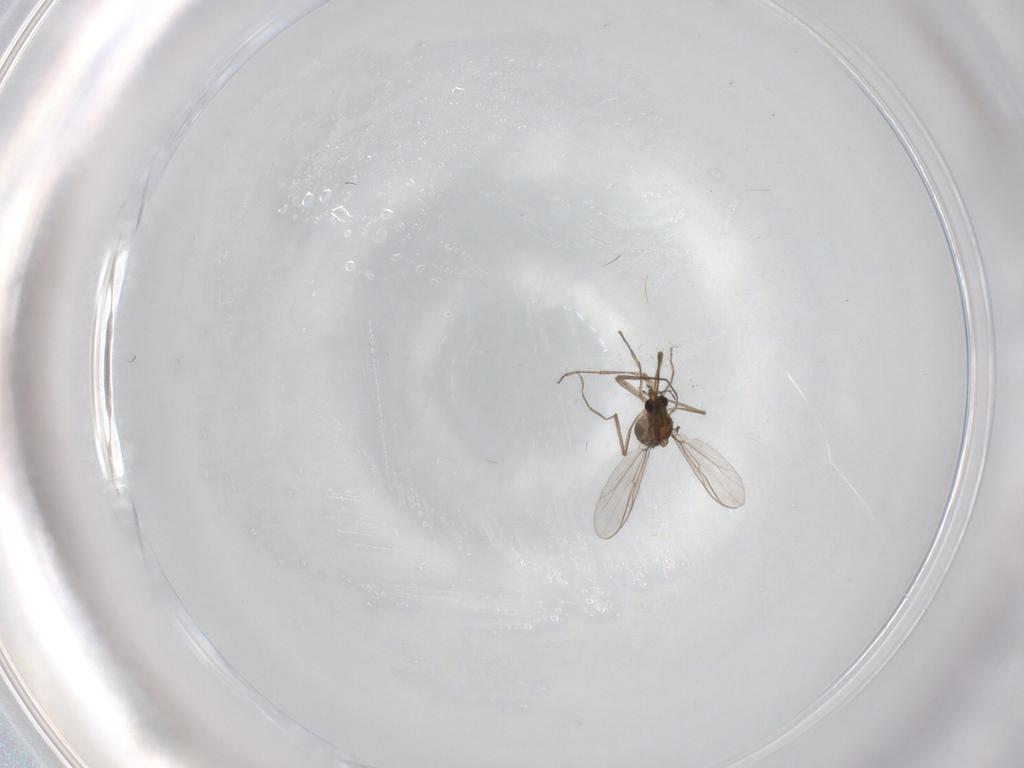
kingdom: Animalia
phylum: Arthropoda
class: Insecta
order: Diptera
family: Chironomidae
